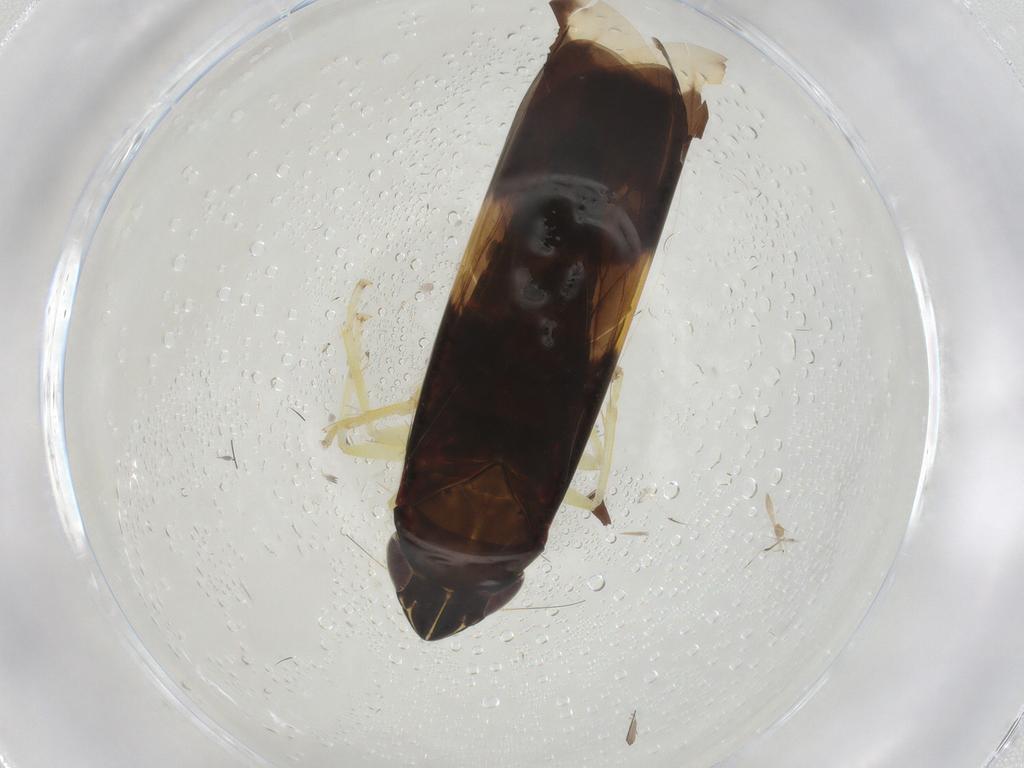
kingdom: Animalia
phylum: Arthropoda
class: Insecta
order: Hemiptera
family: Cicadellidae
